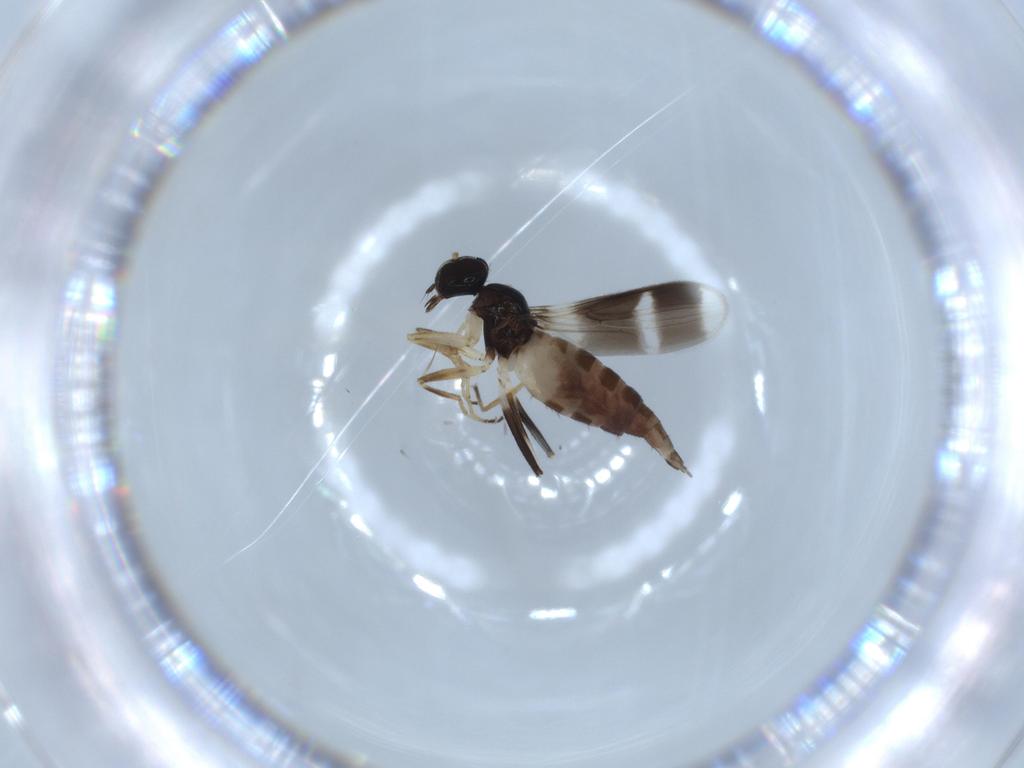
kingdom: Animalia
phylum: Arthropoda
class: Insecta
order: Diptera
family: Hybotidae
